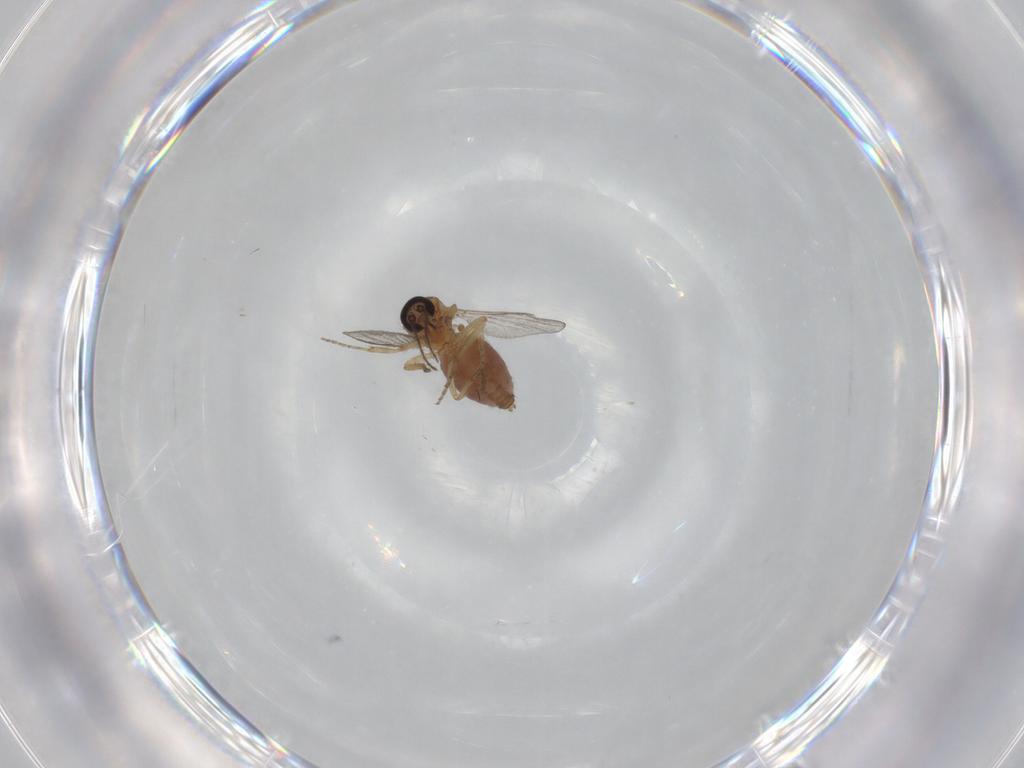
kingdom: Animalia
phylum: Arthropoda
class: Insecta
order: Diptera
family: Ceratopogonidae
